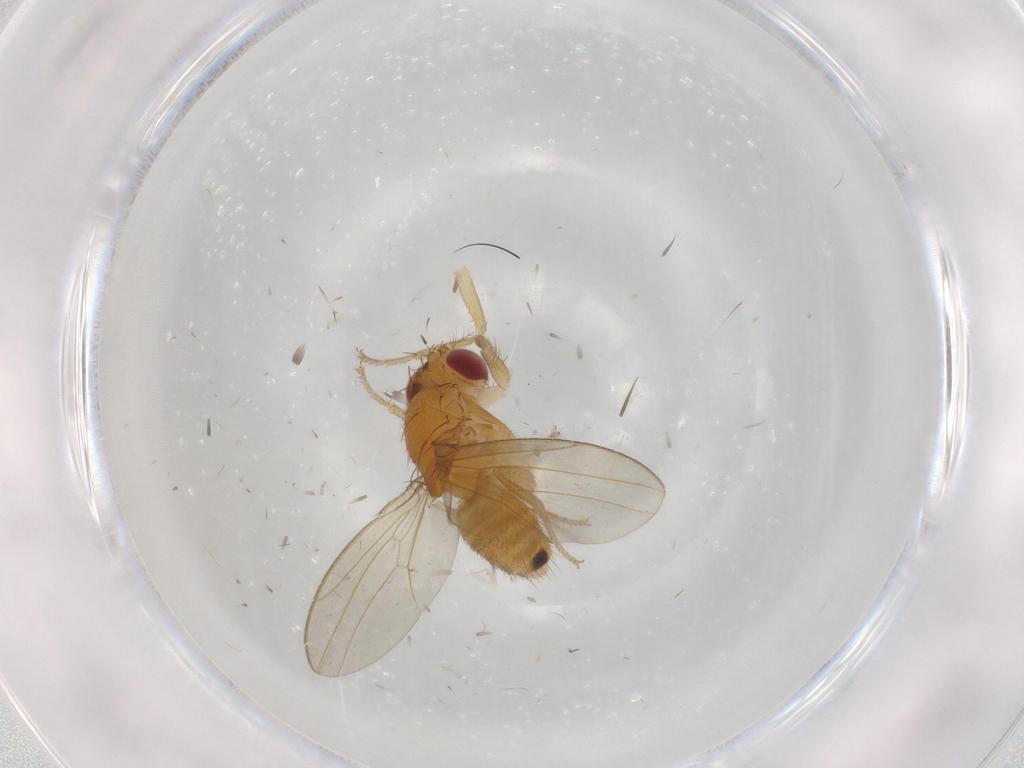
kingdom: Animalia
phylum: Arthropoda
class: Insecta
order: Diptera
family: Drosophilidae
